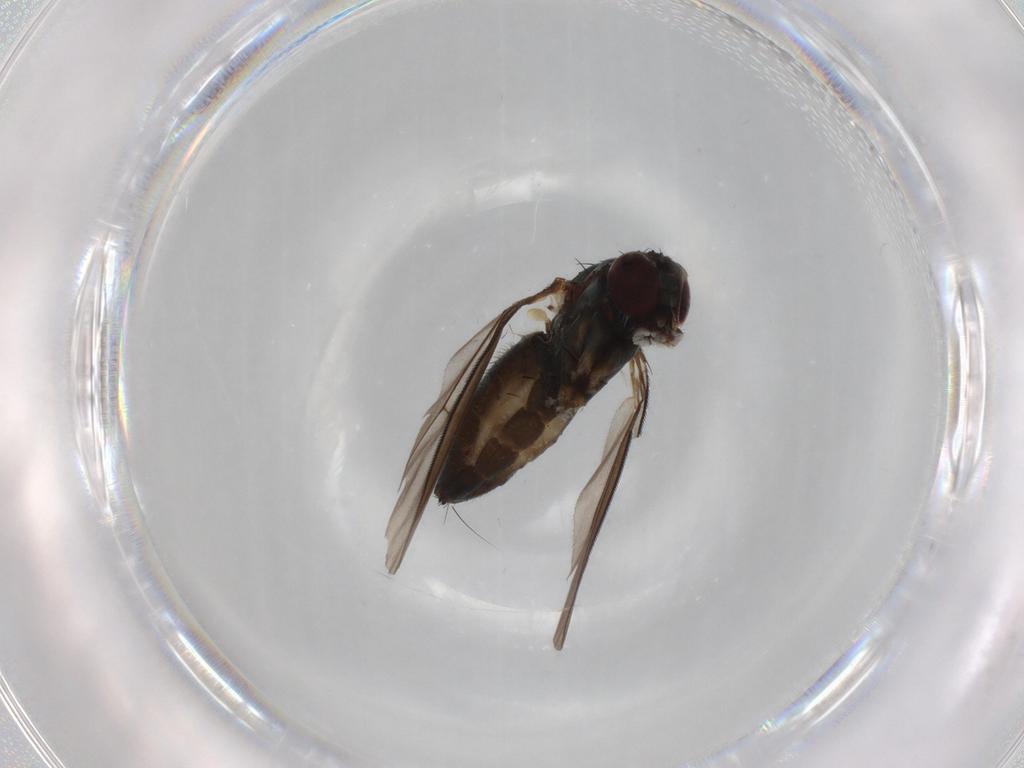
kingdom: Animalia
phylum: Arthropoda
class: Insecta
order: Diptera
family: Dolichopodidae
